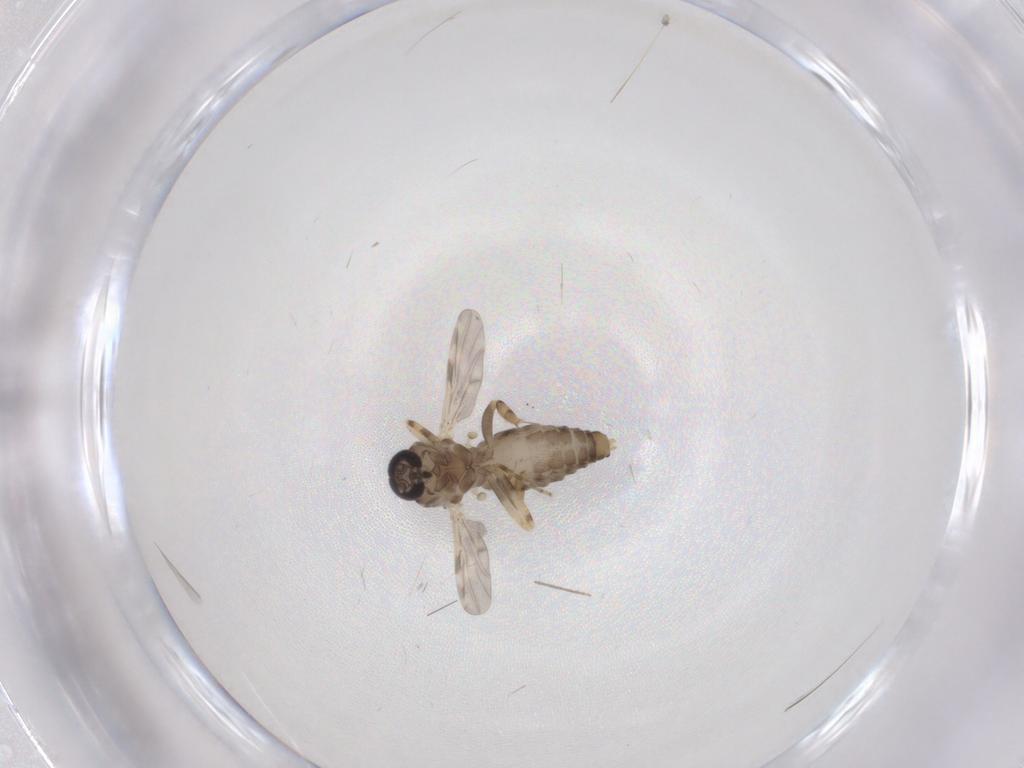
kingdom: Animalia
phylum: Arthropoda
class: Insecta
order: Diptera
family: Ceratopogonidae
